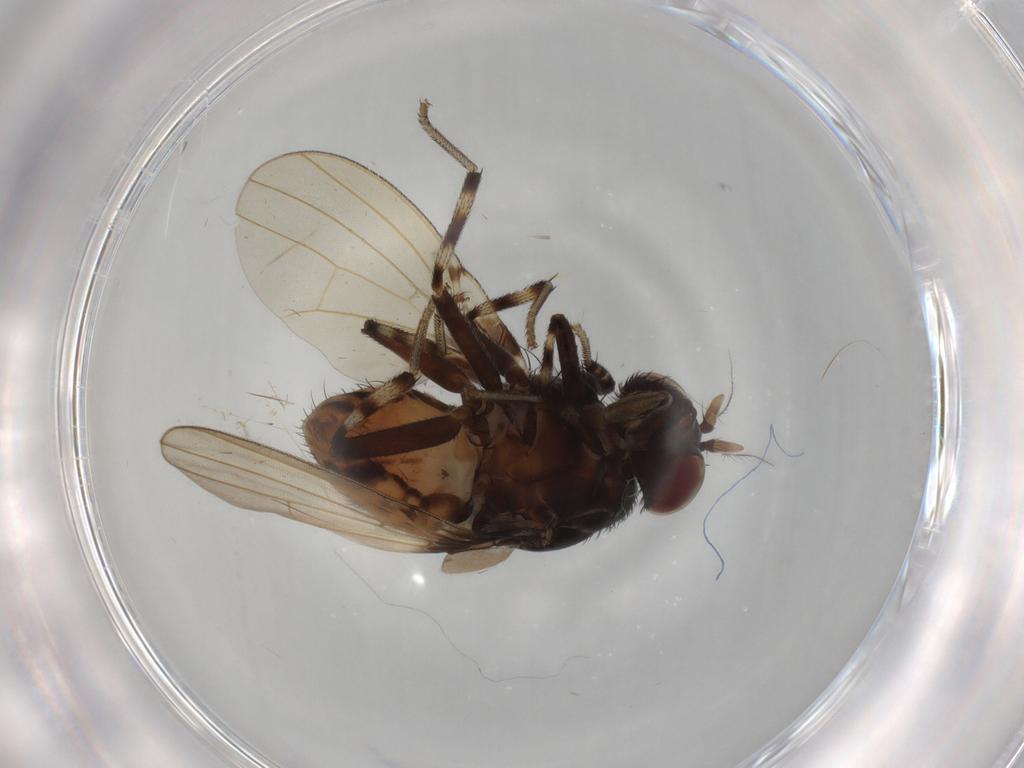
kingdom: Animalia
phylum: Arthropoda
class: Insecta
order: Diptera
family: Lauxaniidae
